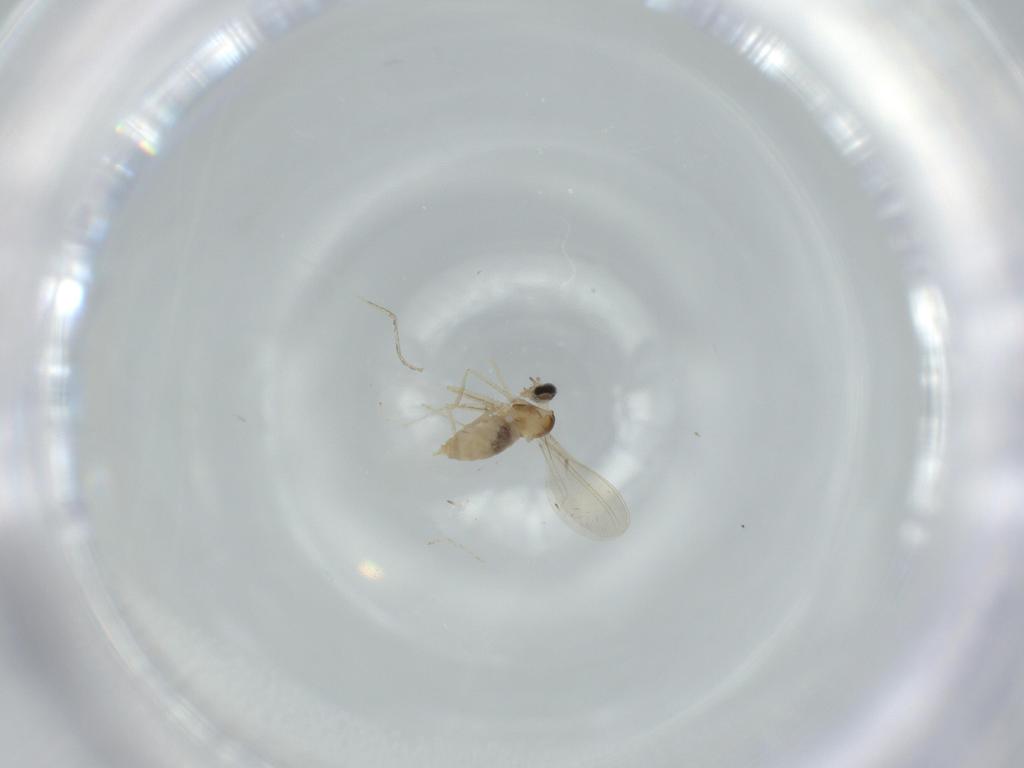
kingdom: Animalia
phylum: Arthropoda
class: Insecta
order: Diptera
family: Cecidomyiidae
